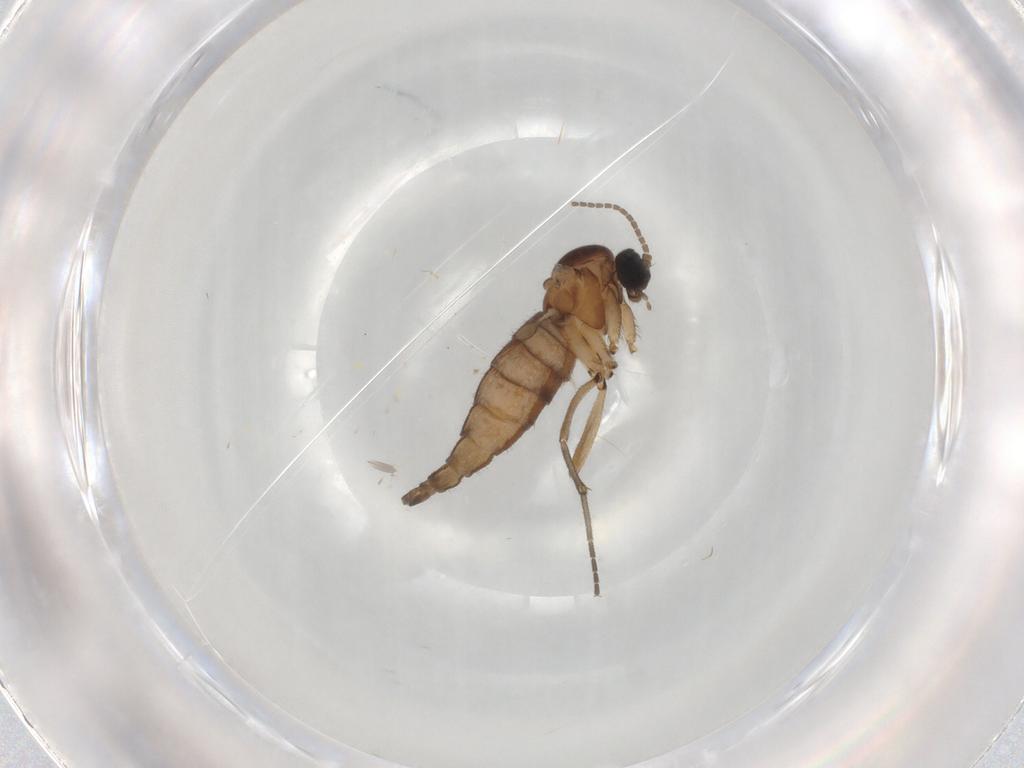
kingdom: Animalia
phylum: Arthropoda
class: Insecta
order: Diptera
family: Sciaridae
